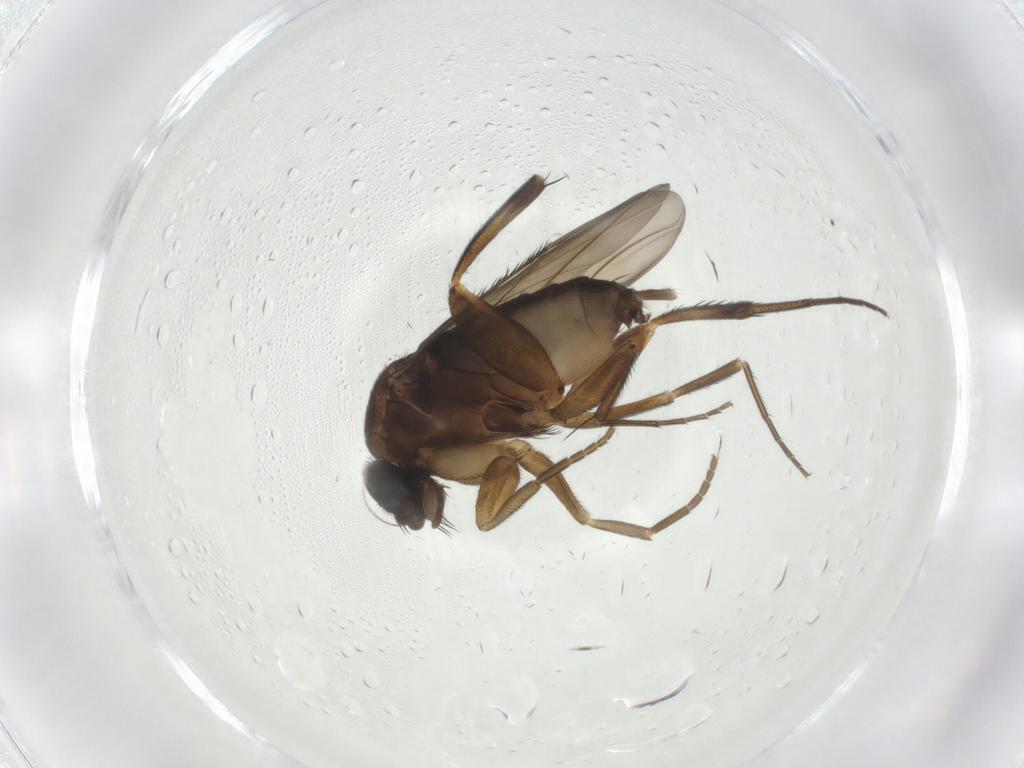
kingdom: Animalia
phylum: Arthropoda
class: Insecta
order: Diptera
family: Phoridae
